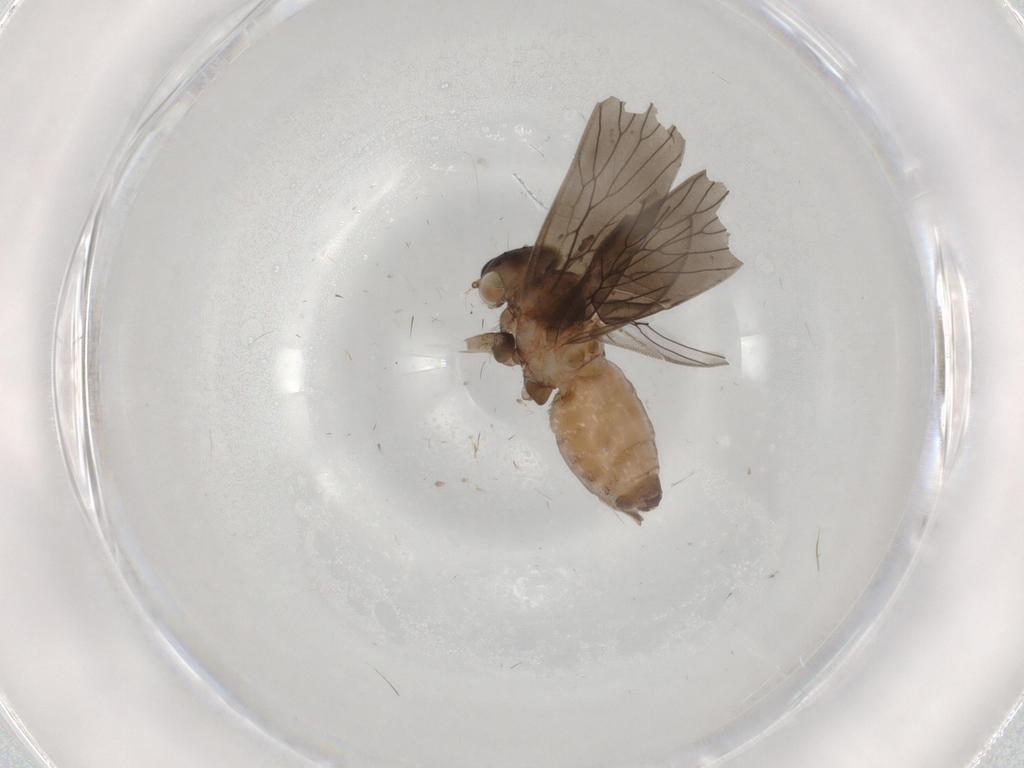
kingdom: Animalia
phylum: Arthropoda
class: Insecta
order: Psocodea
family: Lepidopsocidae
